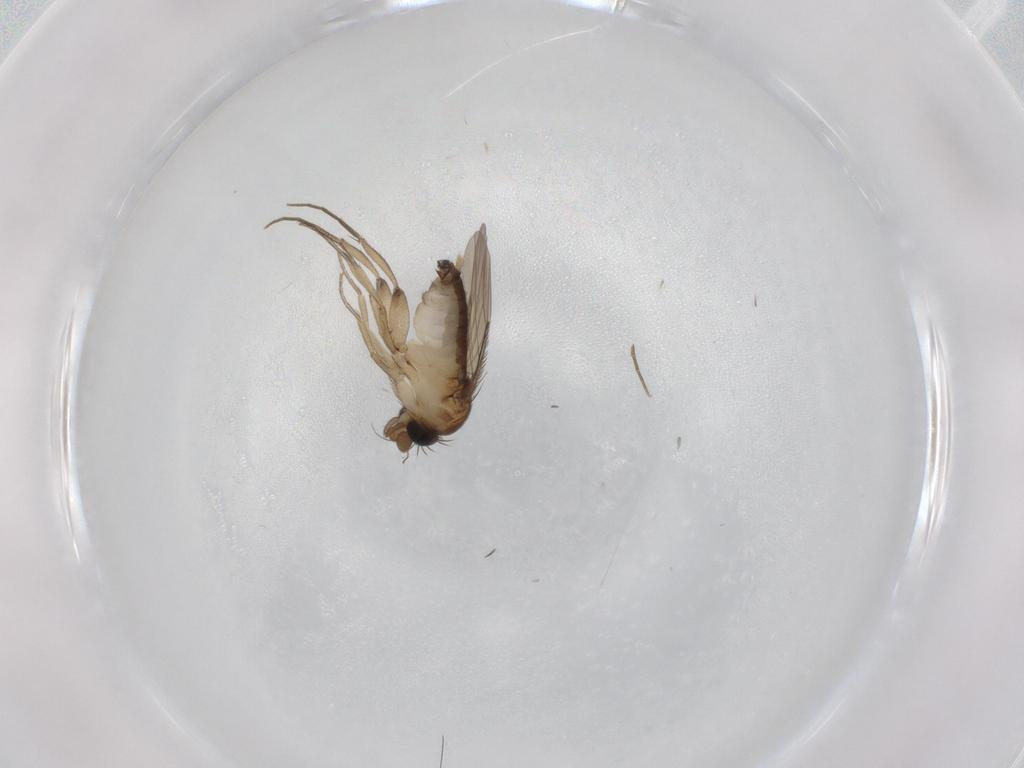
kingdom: Animalia
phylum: Arthropoda
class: Insecta
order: Diptera
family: Phoridae
